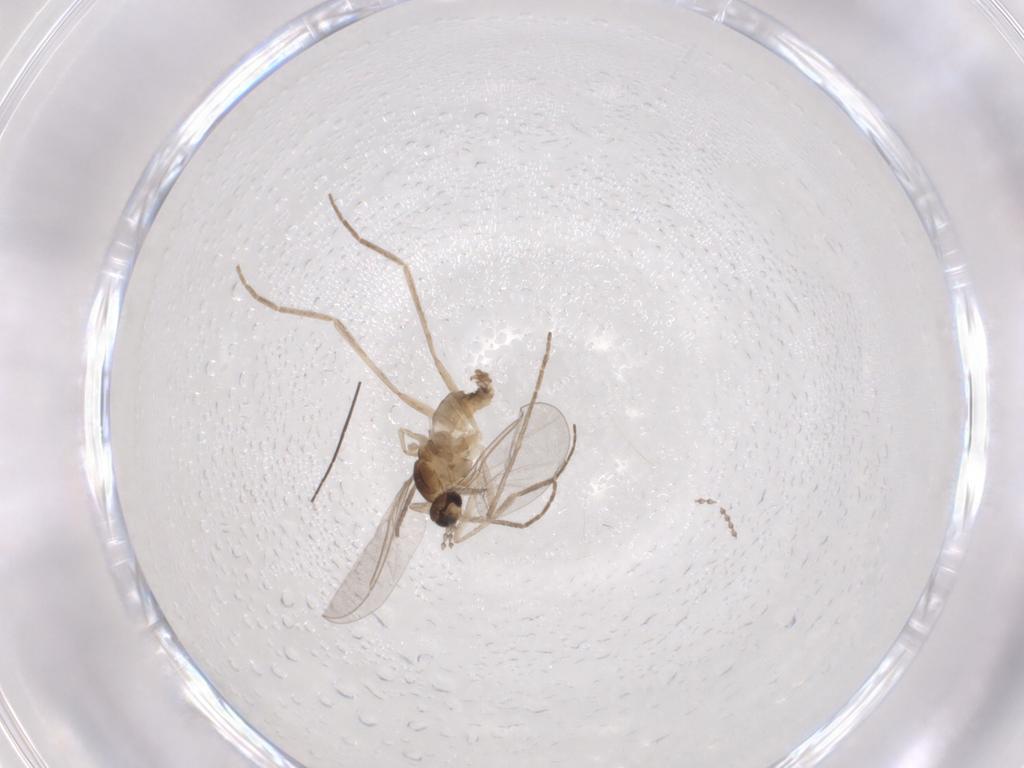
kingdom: Animalia
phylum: Arthropoda
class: Insecta
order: Diptera
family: Chironomidae
